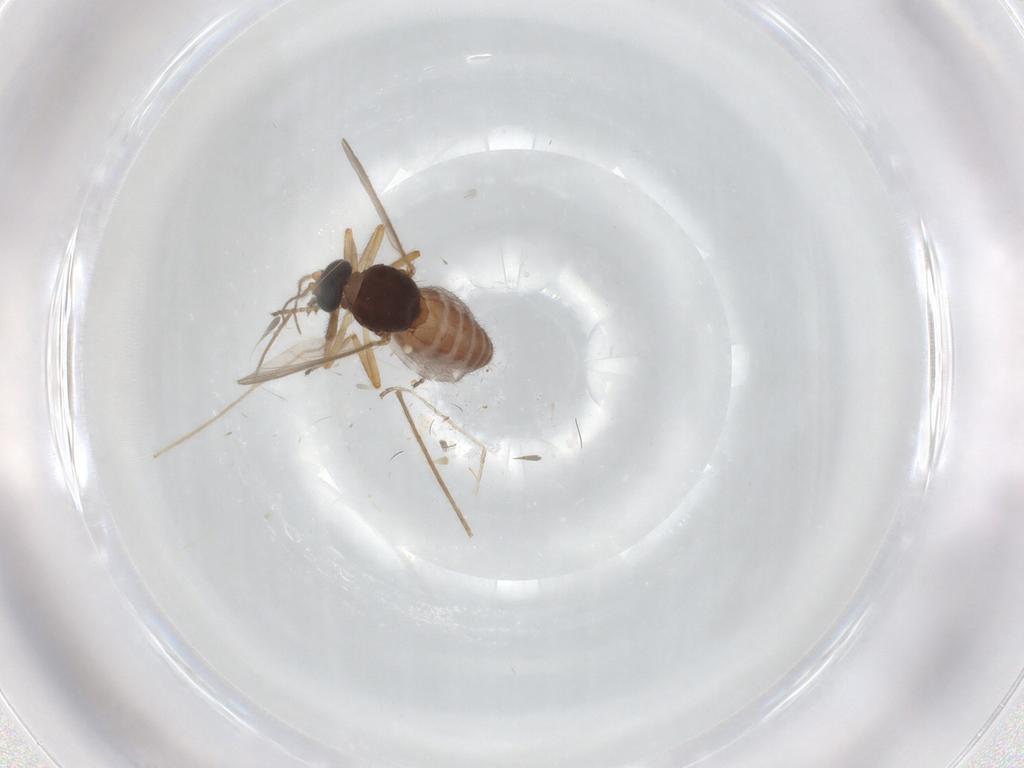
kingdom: Animalia
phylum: Arthropoda
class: Insecta
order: Diptera
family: Ceratopogonidae
